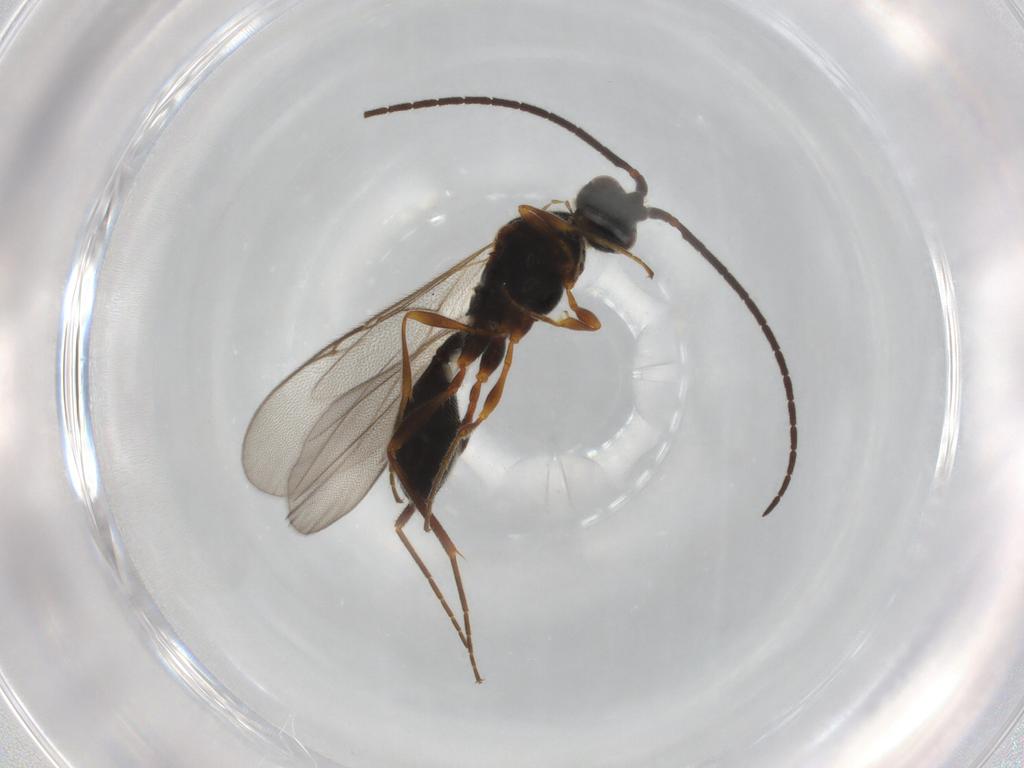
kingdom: Animalia
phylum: Arthropoda
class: Insecta
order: Hymenoptera
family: Diapriidae
